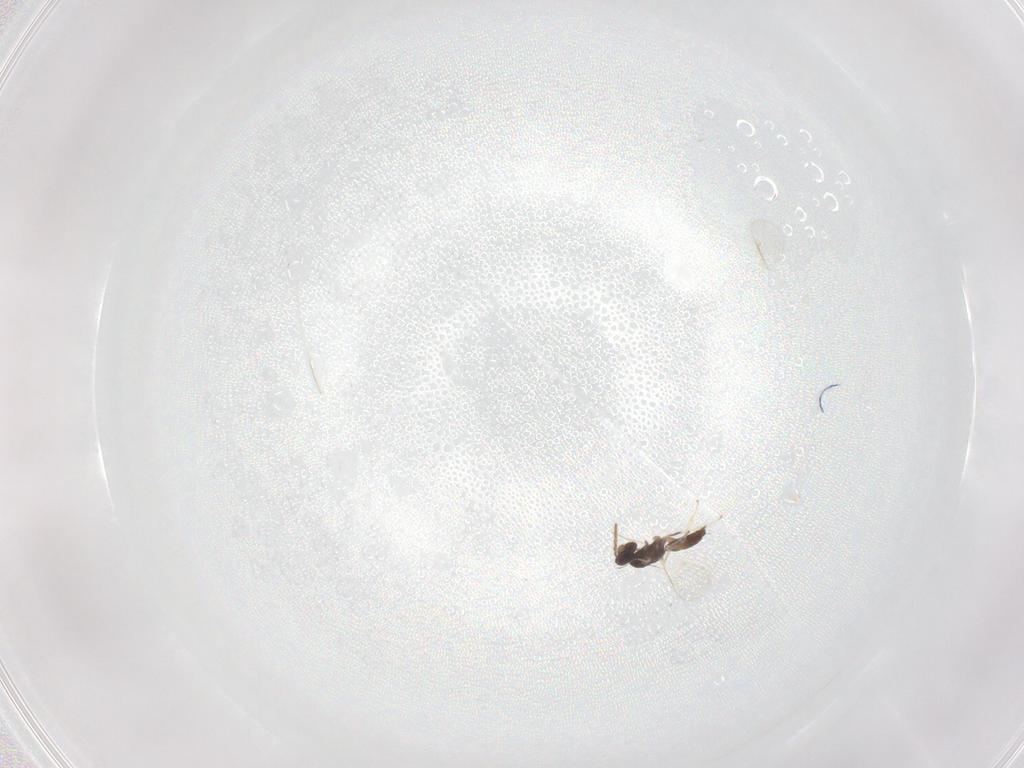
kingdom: Animalia
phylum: Arthropoda
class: Insecta
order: Hymenoptera
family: Eulophidae
